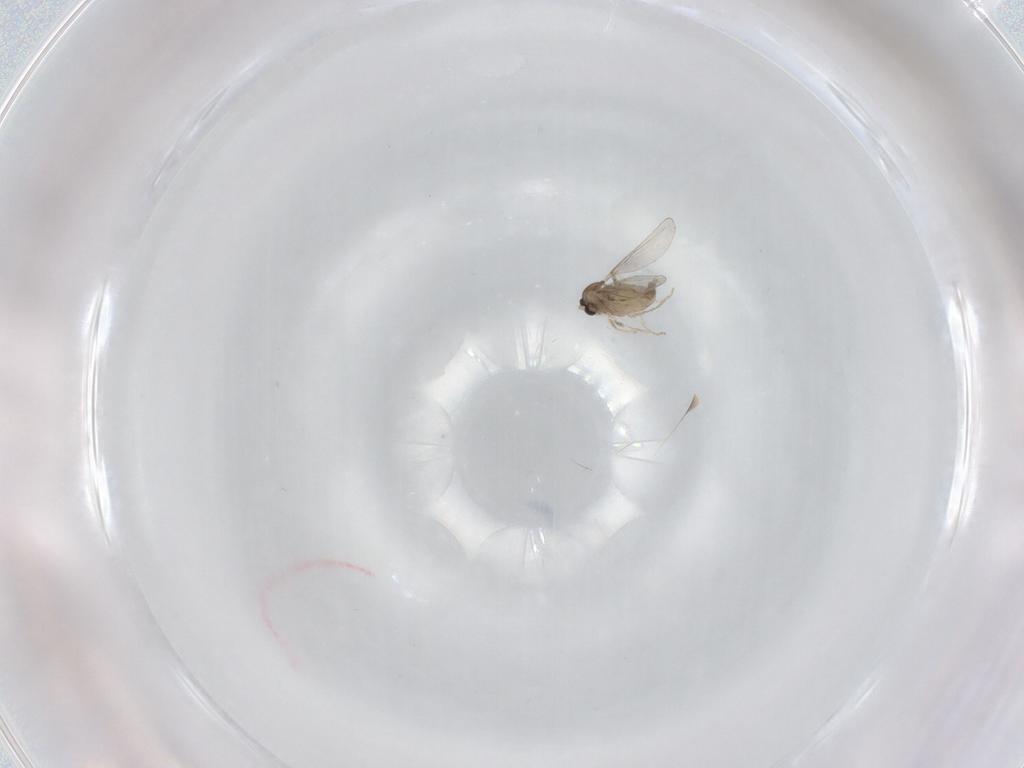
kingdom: Animalia
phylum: Arthropoda
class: Insecta
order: Diptera
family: Cecidomyiidae
